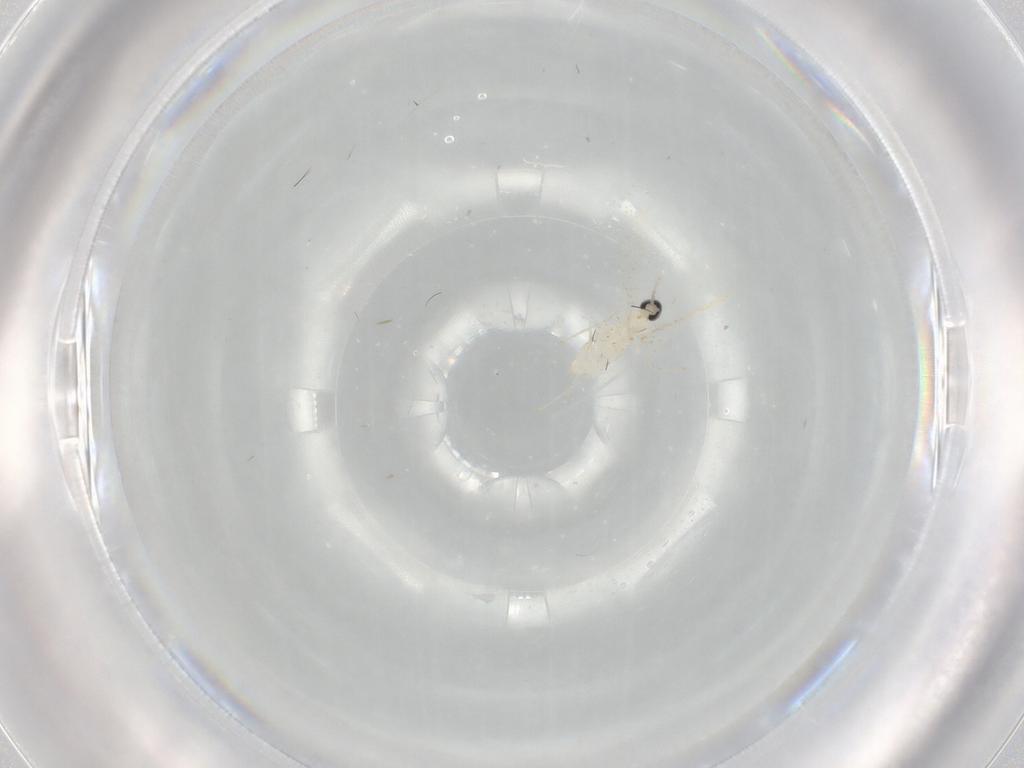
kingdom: Animalia
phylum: Arthropoda
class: Insecta
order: Diptera
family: Cecidomyiidae
